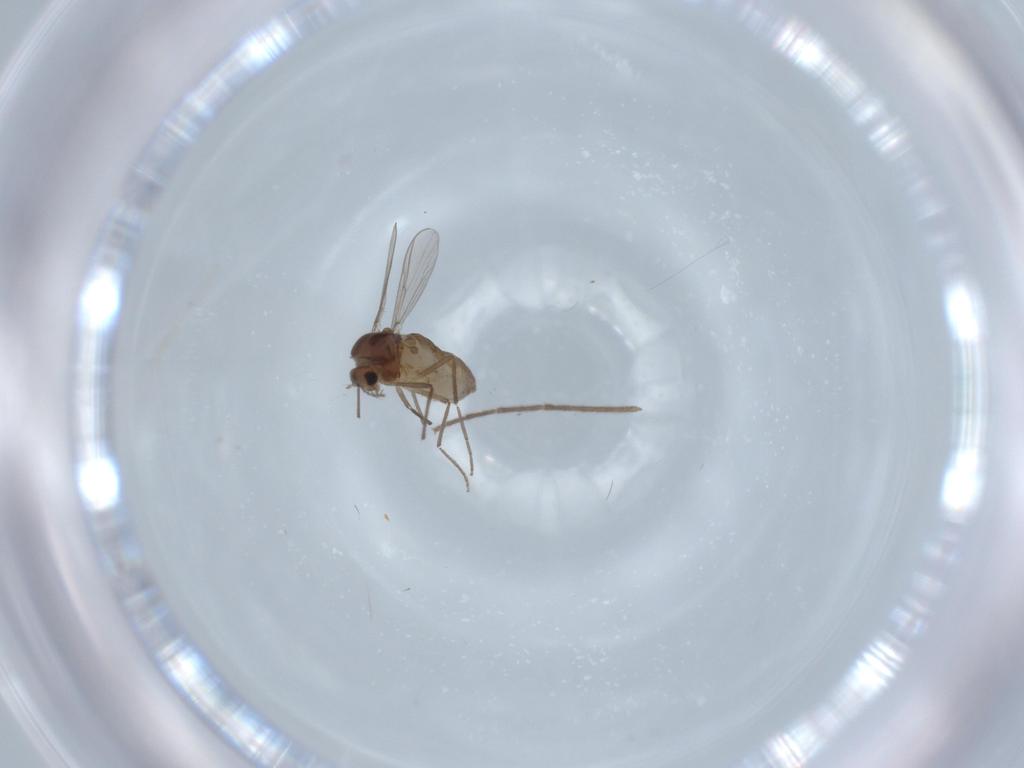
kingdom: Animalia
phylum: Arthropoda
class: Insecta
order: Diptera
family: Chironomidae
